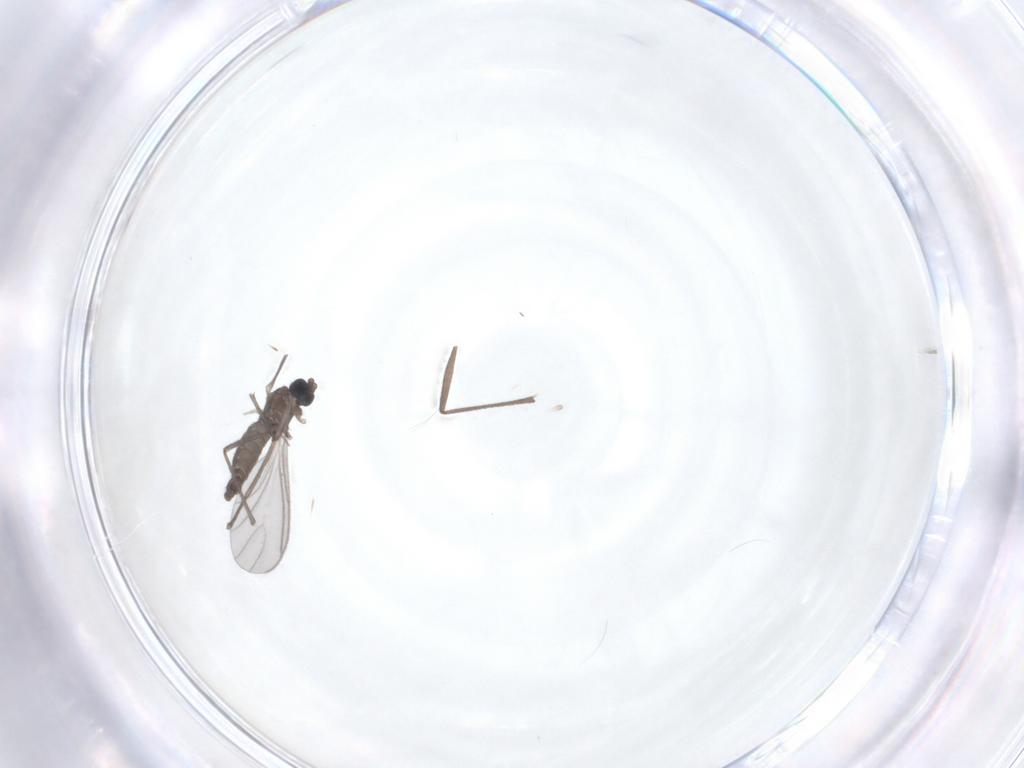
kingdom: Animalia
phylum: Arthropoda
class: Insecta
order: Diptera
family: Sciaridae
